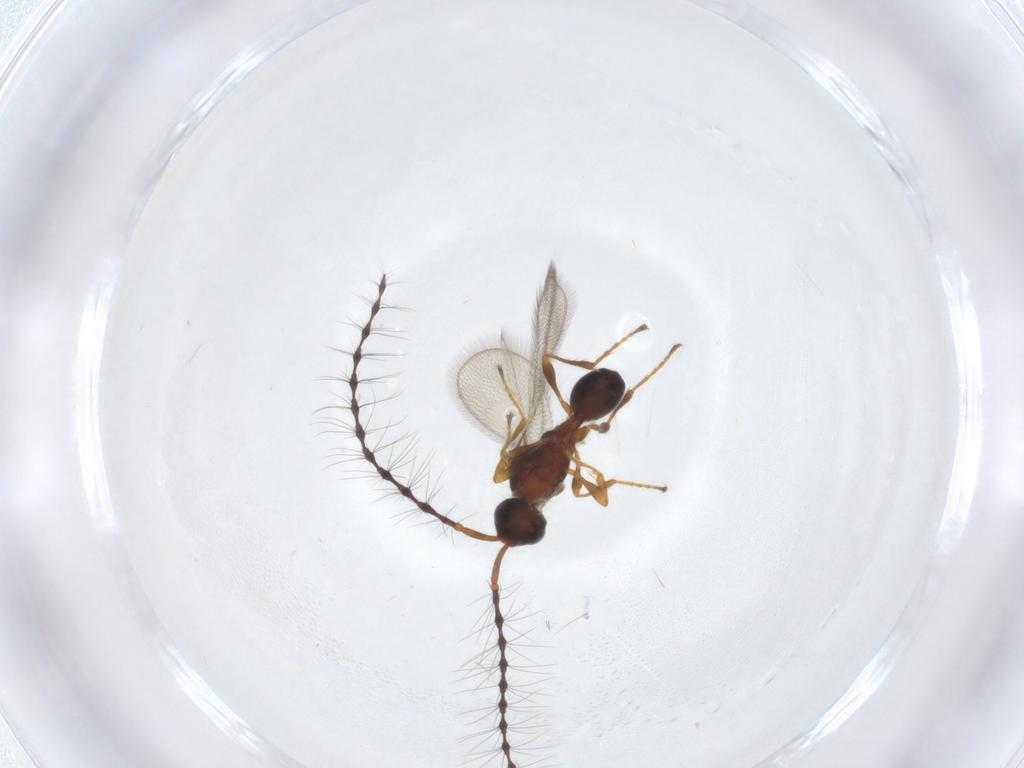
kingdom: Animalia
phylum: Arthropoda
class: Insecta
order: Hymenoptera
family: Diapriidae
